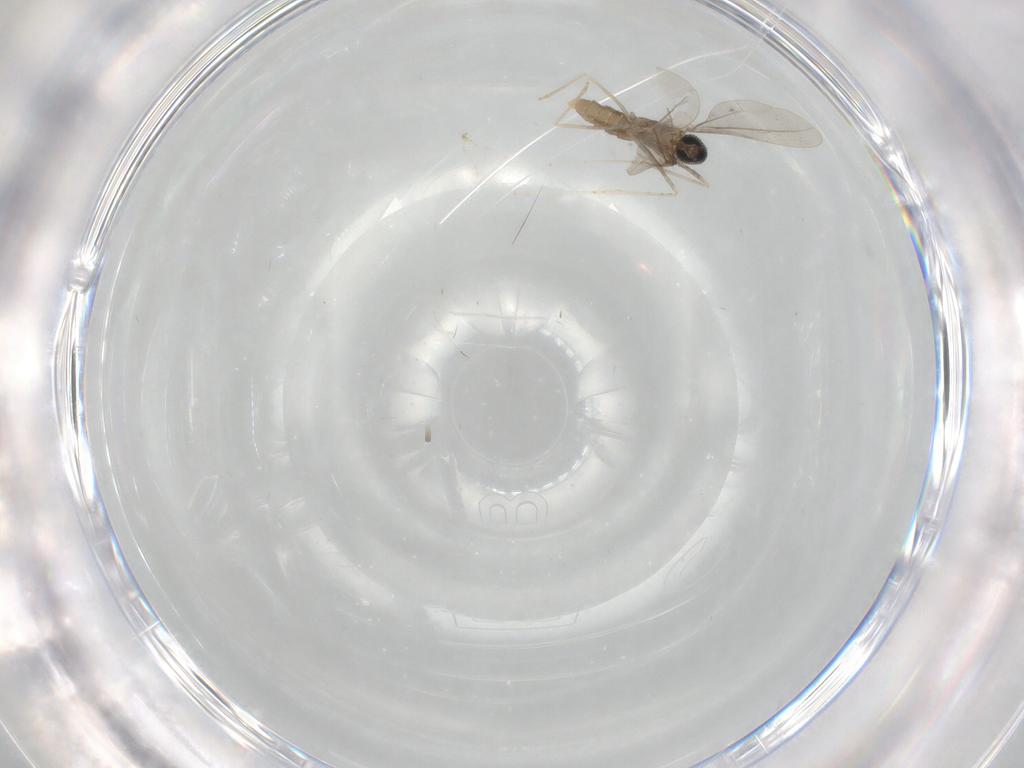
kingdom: Animalia
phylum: Arthropoda
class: Insecta
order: Diptera
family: Cecidomyiidae
